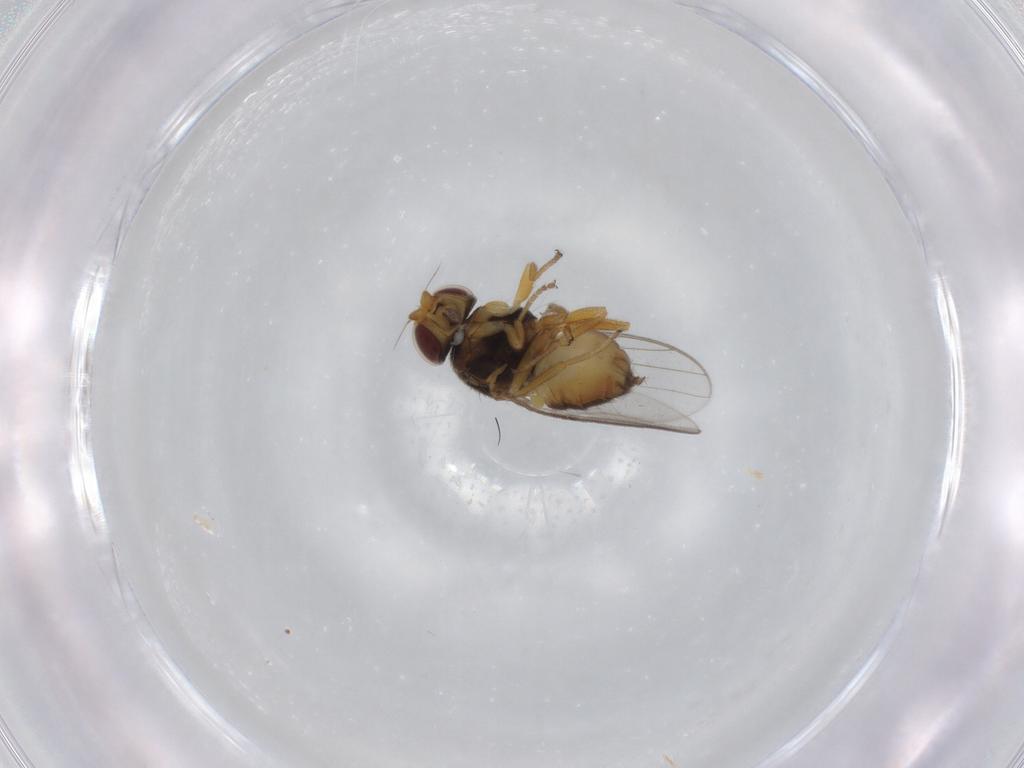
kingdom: Animalia
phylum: Arthropoda
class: Insecta
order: Diptera
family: Chloropidae
